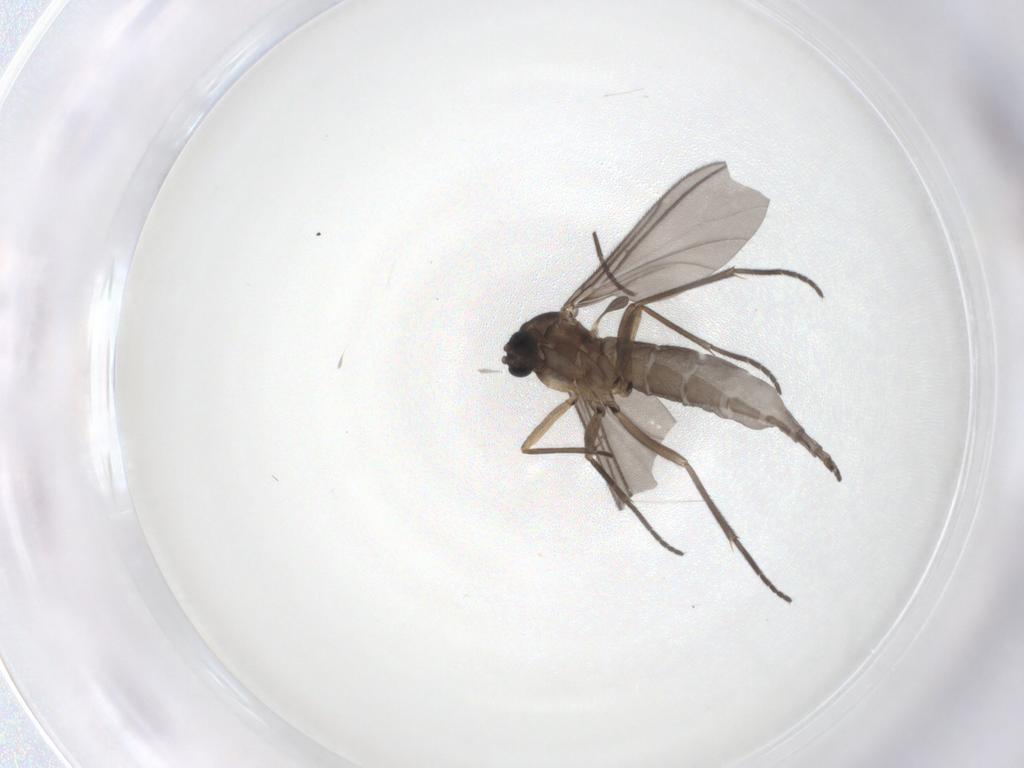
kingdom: Animalia
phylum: Arthropoda
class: Insecta
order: Diptera
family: Sciaridae
